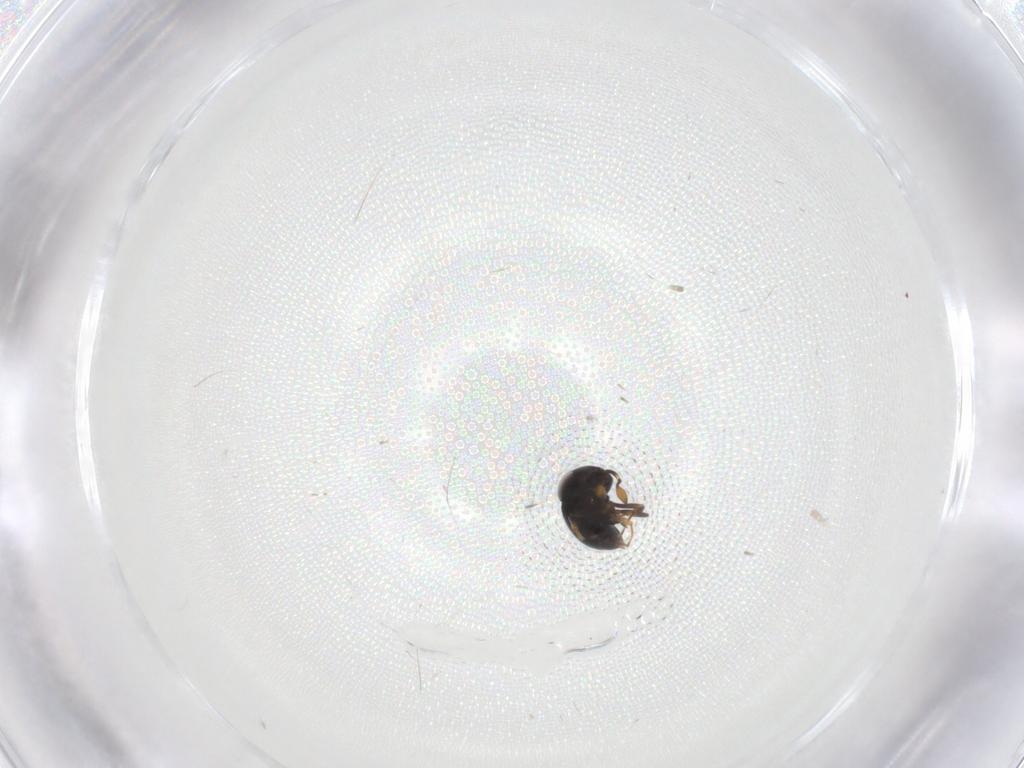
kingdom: Animalia
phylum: Arthropoda
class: Insecta
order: Hymenoptera
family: Scelionidae
